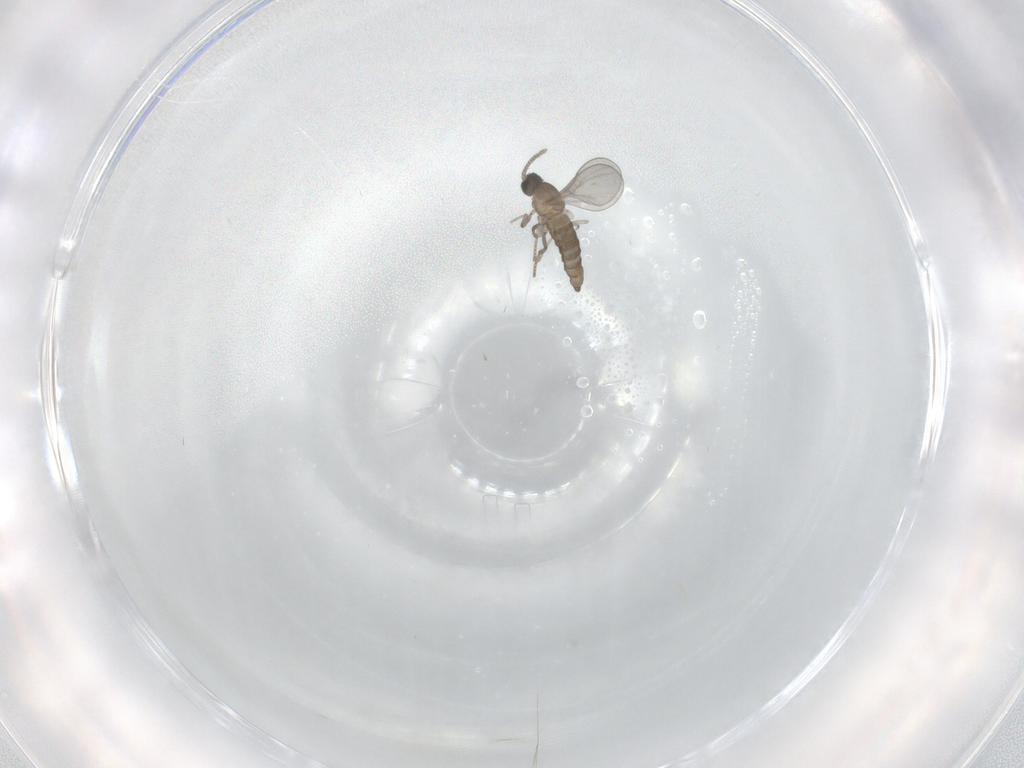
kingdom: Animalia
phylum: Arthropoda
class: Insecta
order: Diptera
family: Cecidomyiidae
